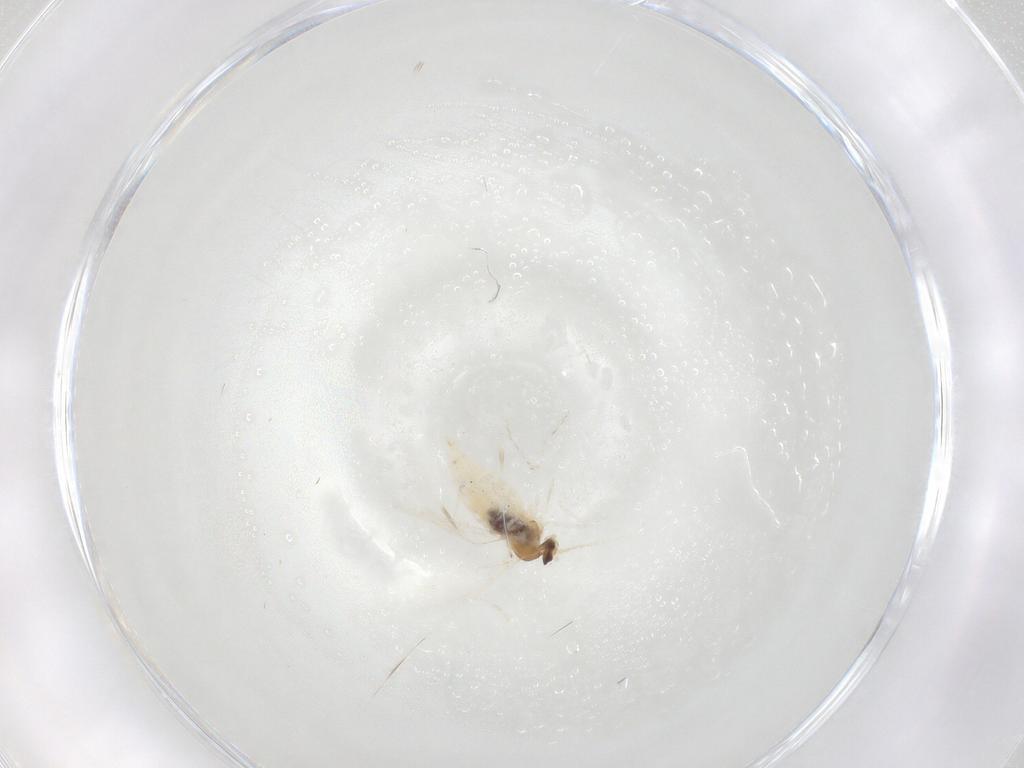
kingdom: Animalia
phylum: Arthropoda
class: Insecta
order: Diptera
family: Cecidomyiidae
